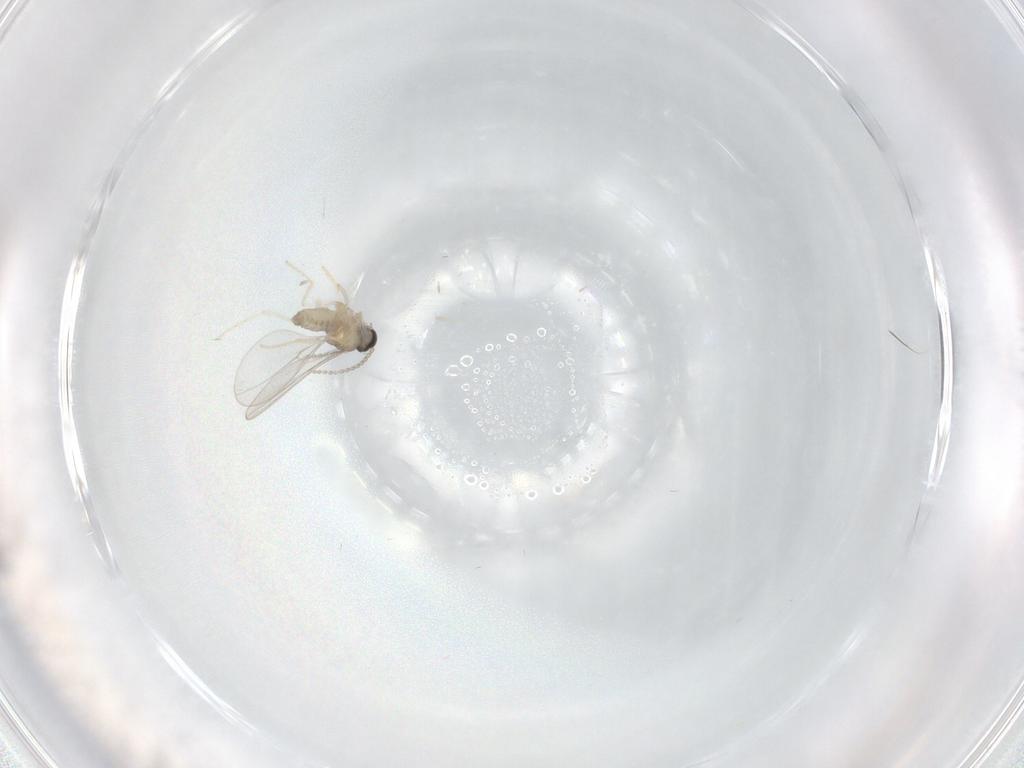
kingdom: Animalia
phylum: Arthropoda
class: Insecta
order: Diptera
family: Cecidomyiidae
